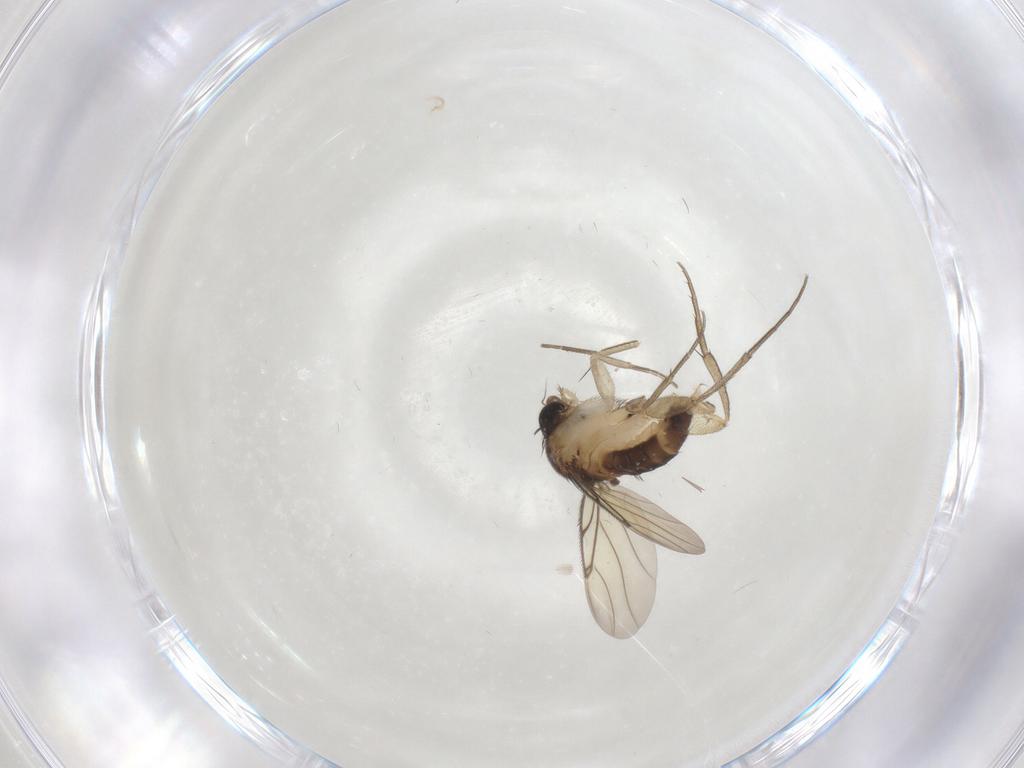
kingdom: Animalia
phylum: Arthropoda
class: Insecta
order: Diptera
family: Phoridae
